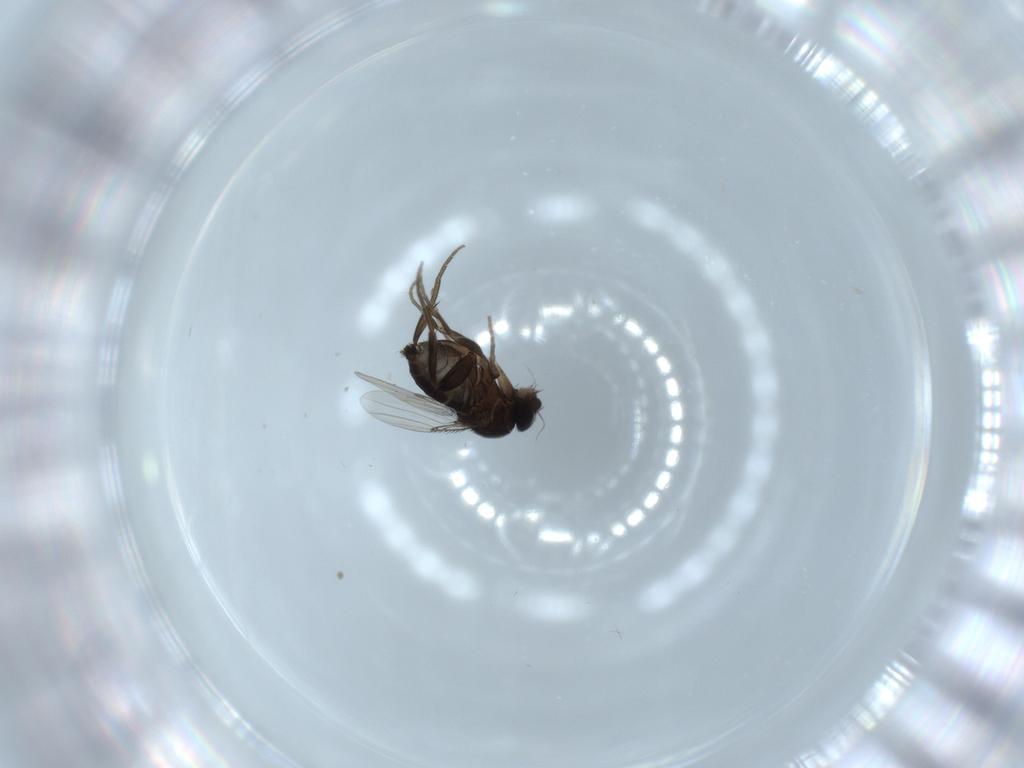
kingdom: Animalia
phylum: Arthropoda
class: Insecta
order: Diptera
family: Phoridae
